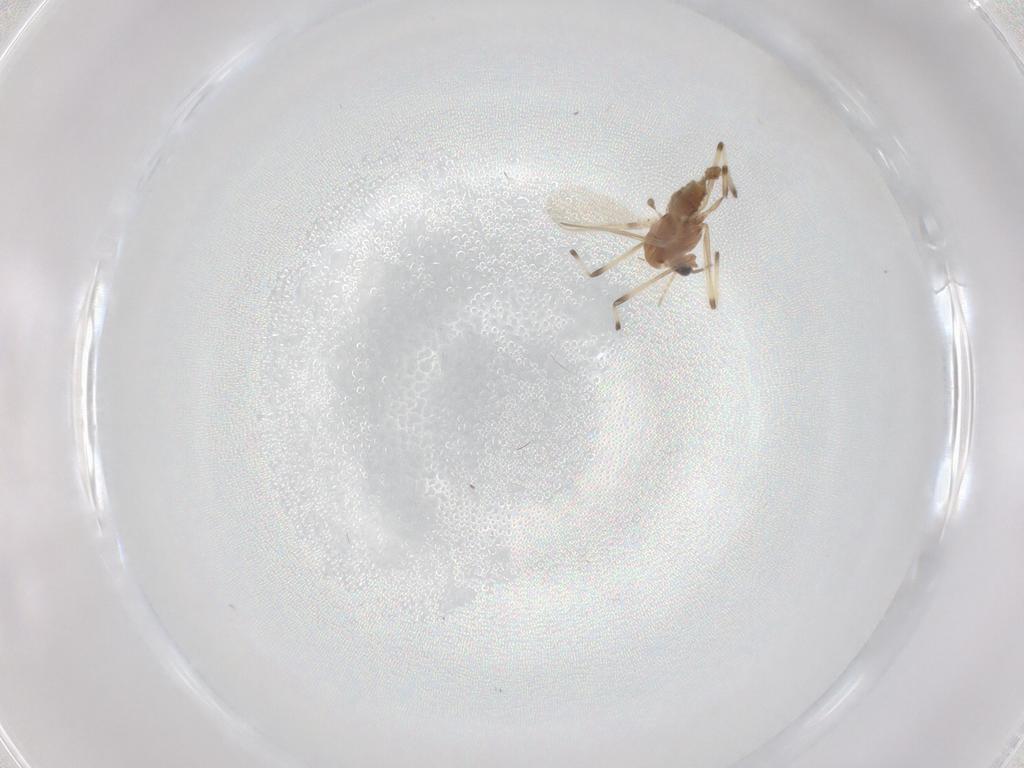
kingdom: Animalia
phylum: Arthropoda
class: Insecta
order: Diptera
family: Chironomidae
